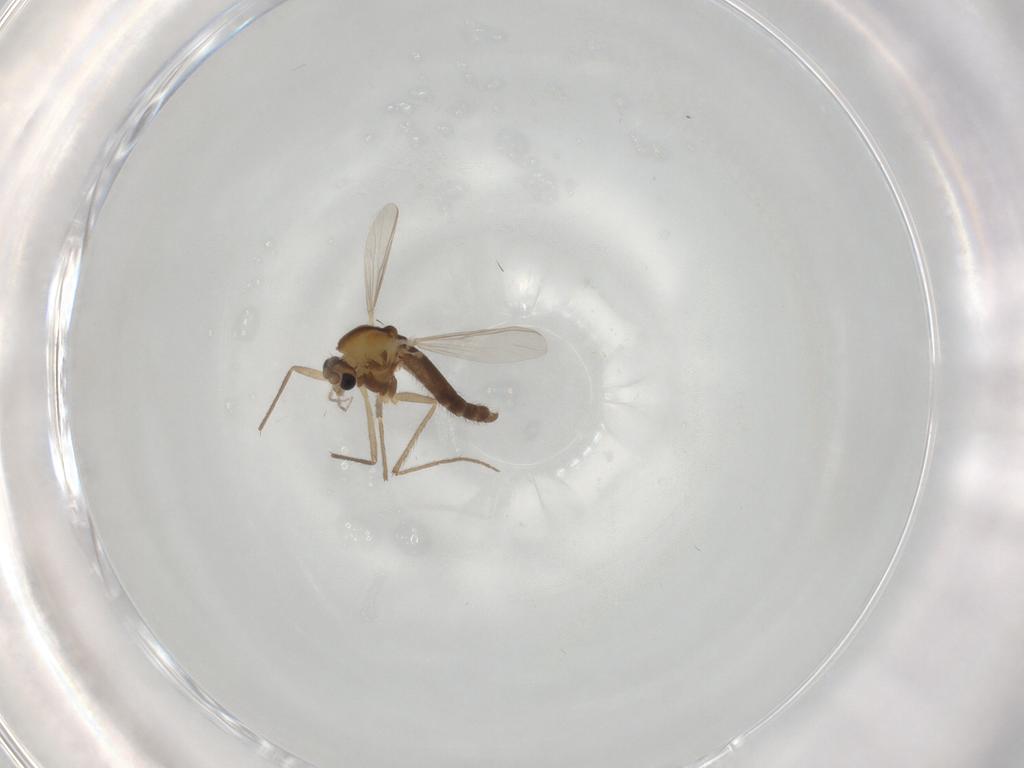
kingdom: Animalia
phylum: Arthropoda
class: Insecta
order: Diptera
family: Chironomidae
